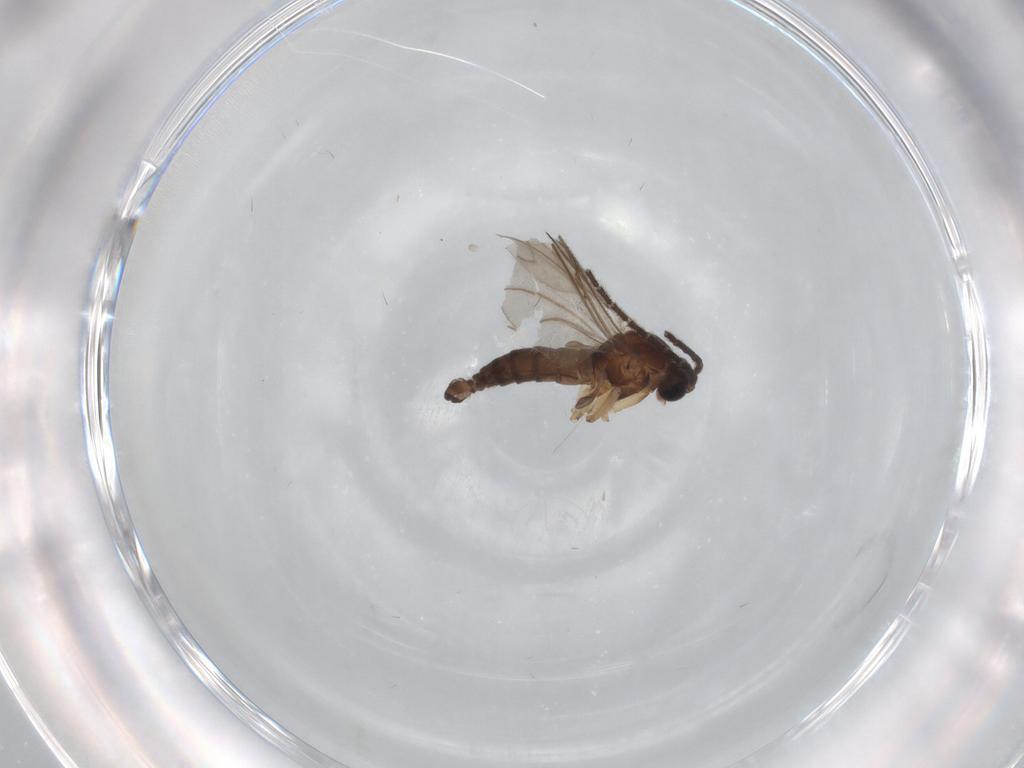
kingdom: Animalia
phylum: Arthropoda
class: Insecta
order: Diptera
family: Sciaridae
